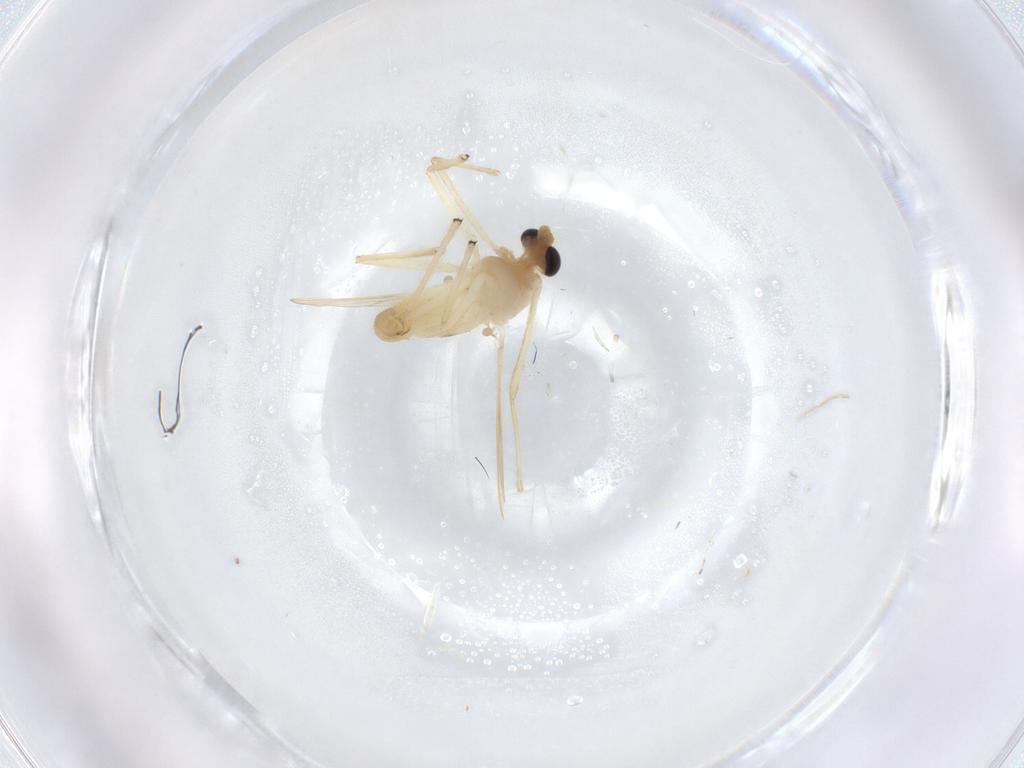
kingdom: Animalia
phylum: Arthropoda
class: Insecta
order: Diptera
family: Chironomidae
